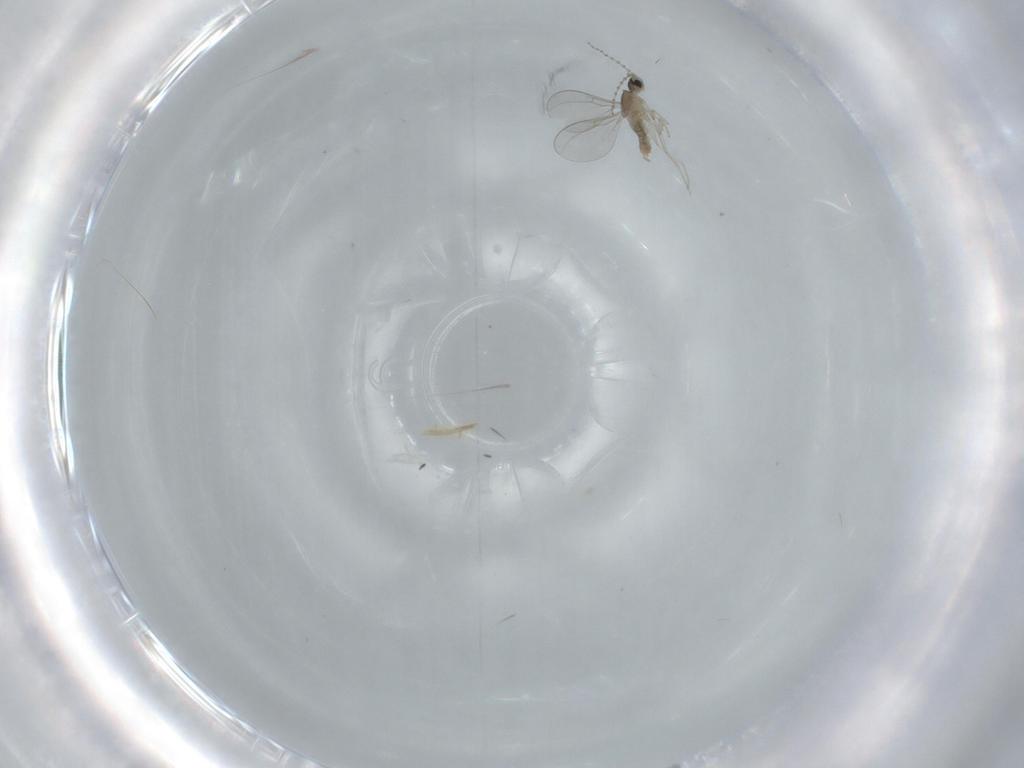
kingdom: Animalia
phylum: Arthropoda
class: Insecta
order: Diptera
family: Cecidomyiidae
